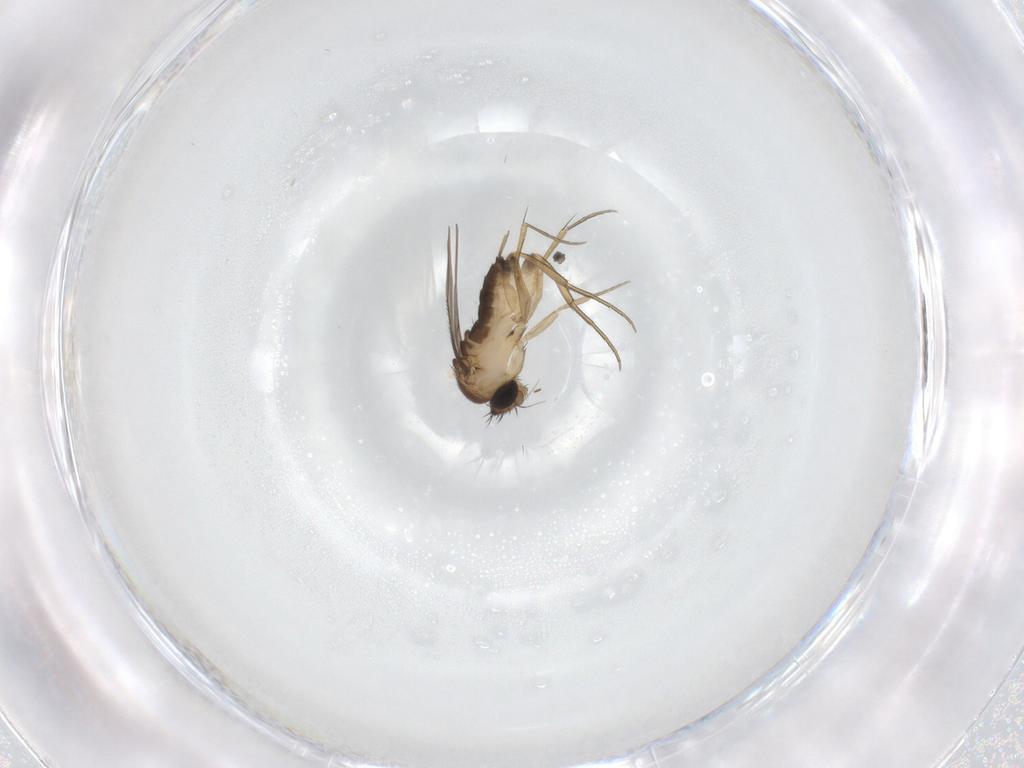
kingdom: Animalia
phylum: Arthropoda
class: Insecta
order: Diptera
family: Phoridae
